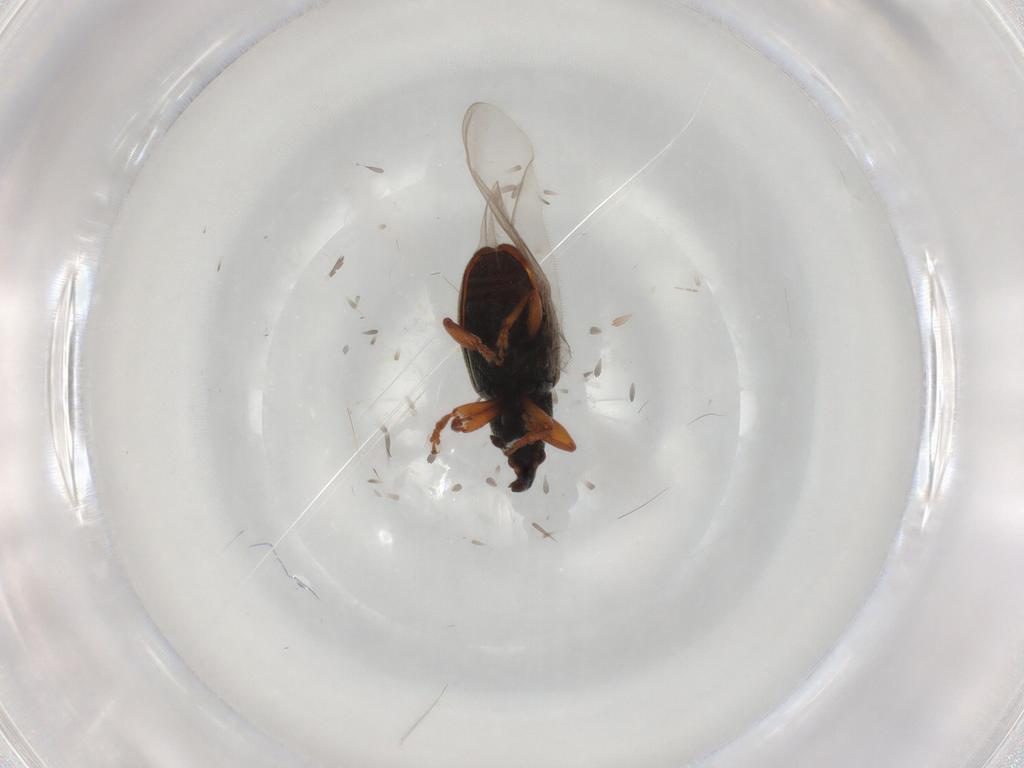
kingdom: Animalia
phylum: Arthropoda
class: Insecta
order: Coleoptera
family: Curculionidae
